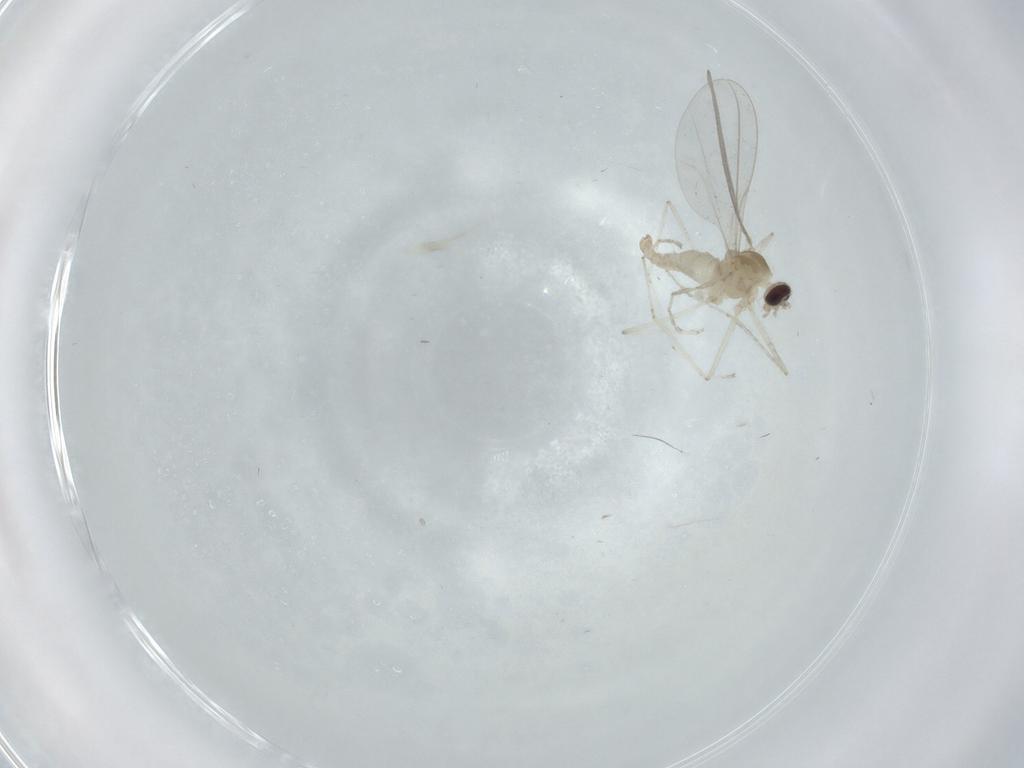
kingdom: Animalia
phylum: Arthropoda
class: Insecta
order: Diptera
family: Cecidomyiidae
